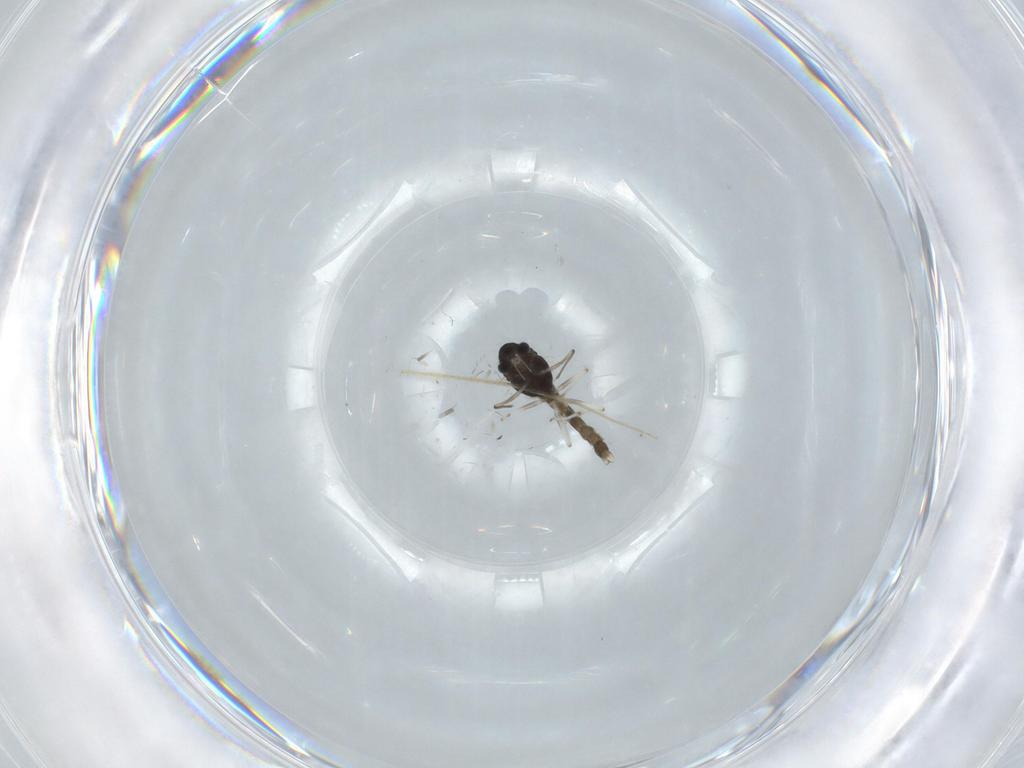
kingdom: Animalia
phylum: Arthropoda
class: Insecta
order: Diptera
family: Chironomidae
